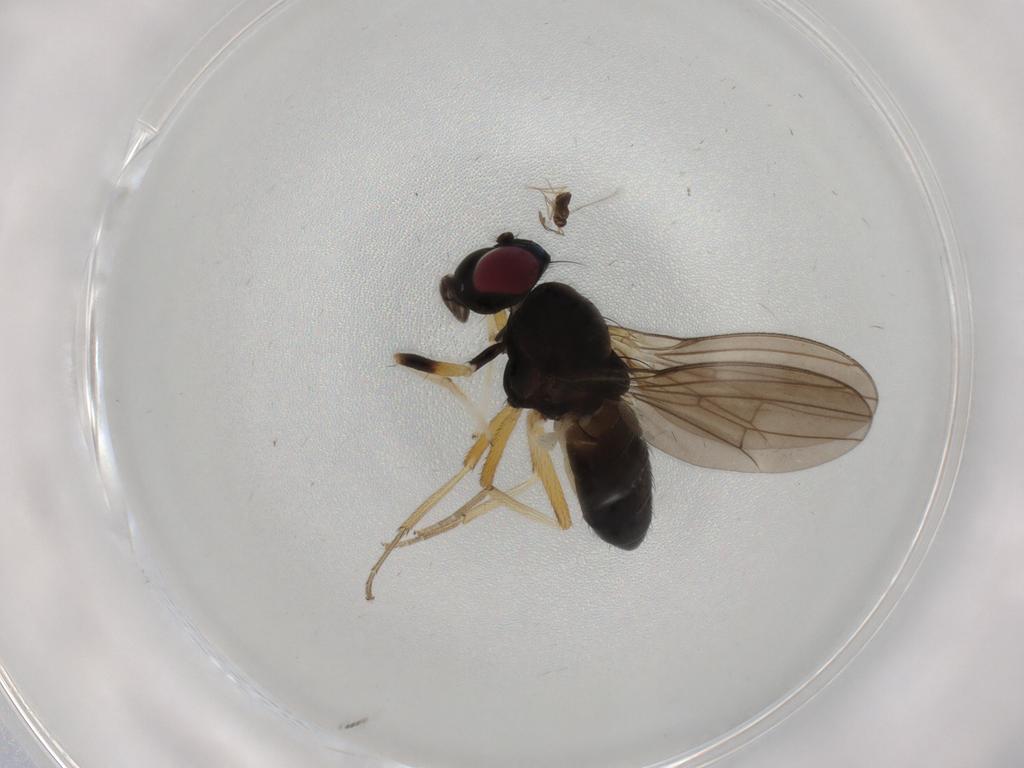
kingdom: Animalia
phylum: Arthropoda
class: Insecta
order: Diptera
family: Lauxaniidae
